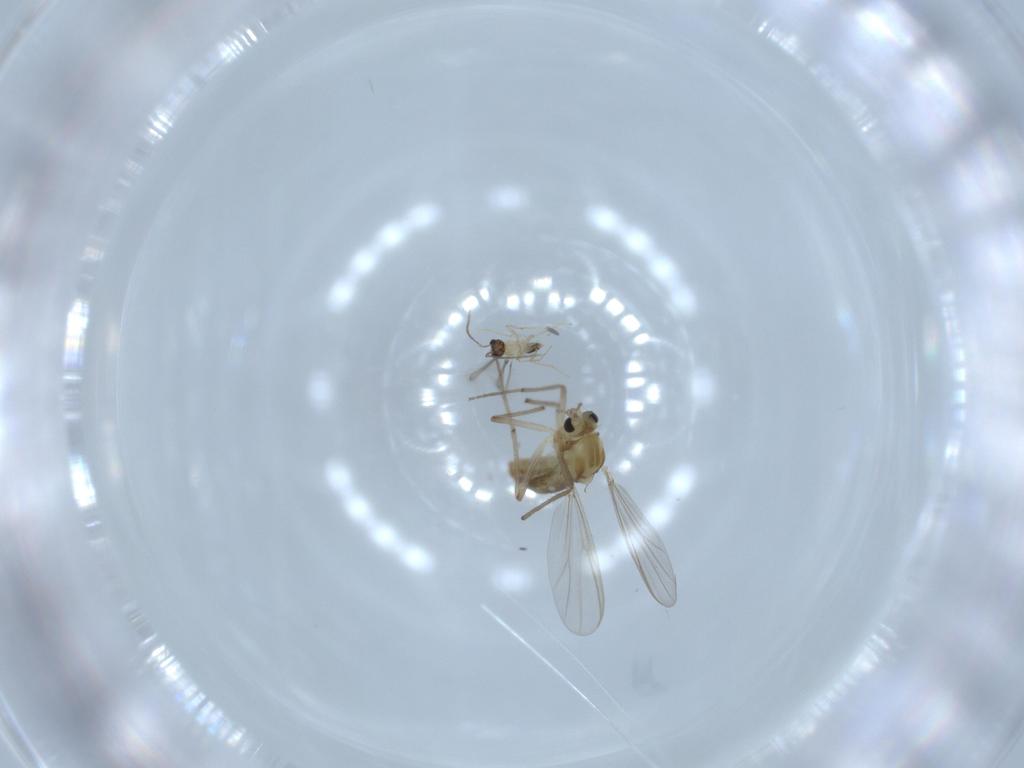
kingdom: Animalia
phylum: Arthropoda
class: Insecta
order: Diptera
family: Chironomidae
